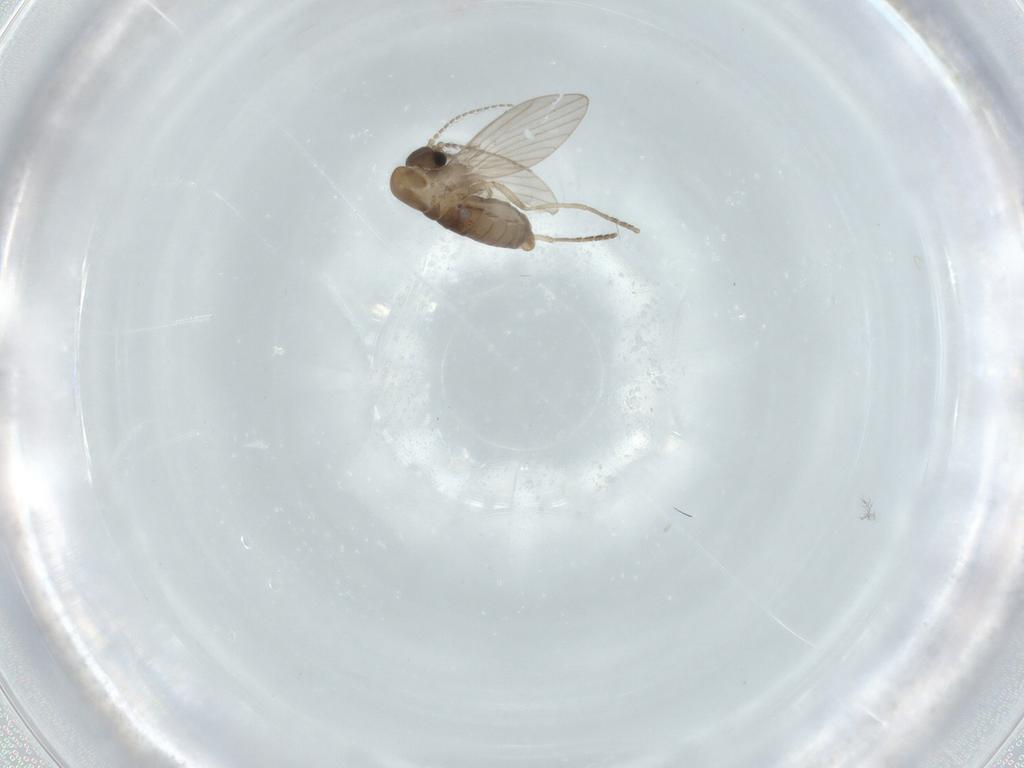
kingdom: Animalia
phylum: Arthropoda
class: Insecta
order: Diptera
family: Psychodidae
